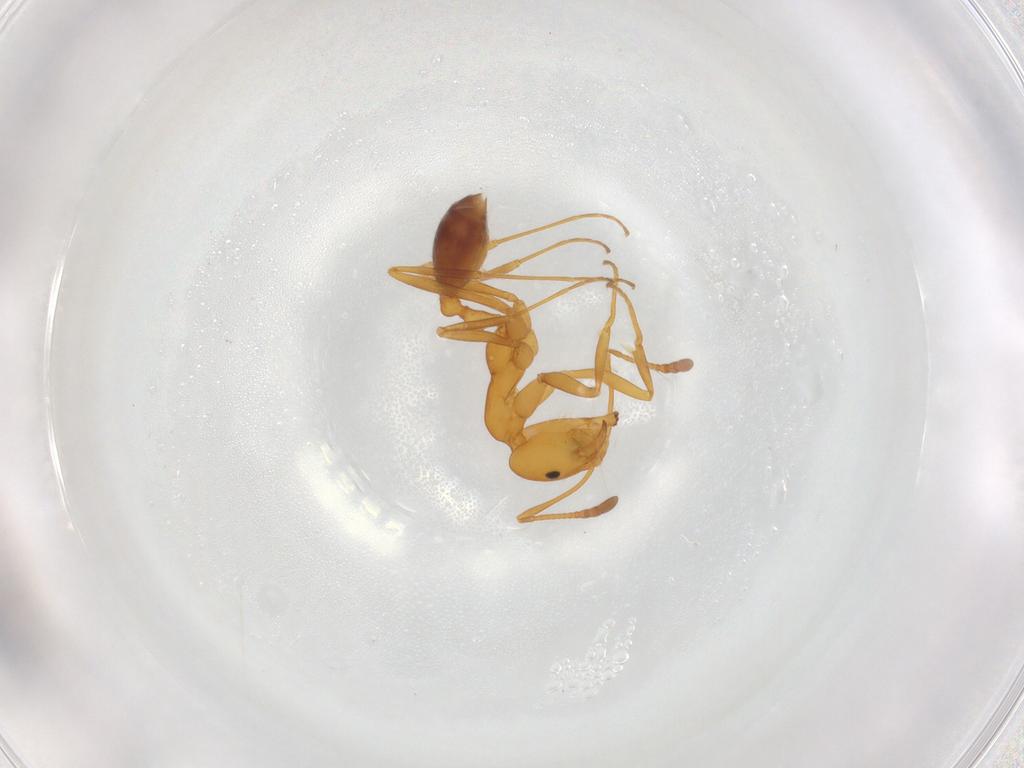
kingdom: Animalia
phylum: Arthropoda
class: Insecta
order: Hymenoptera
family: Formicidae
